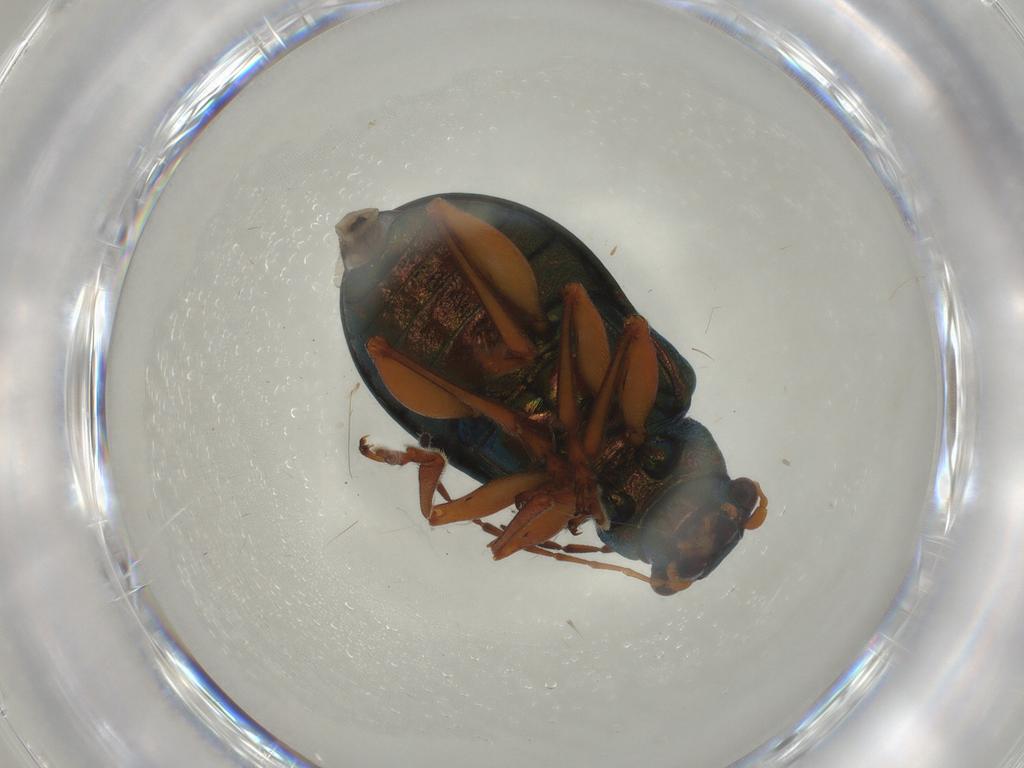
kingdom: Animalia
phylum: Arthropoda
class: Insecta
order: Coleoptera
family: Chrysomelidae
